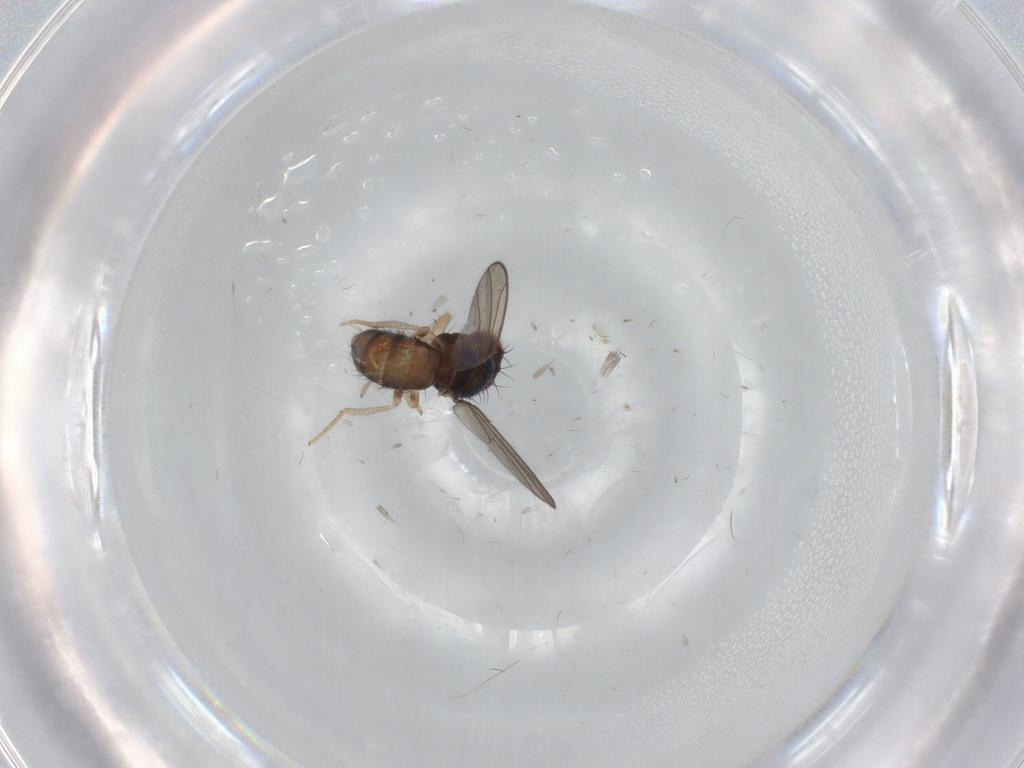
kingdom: Animalia
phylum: Arthropoda
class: Insecta
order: Diptera
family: Drosophilidae
